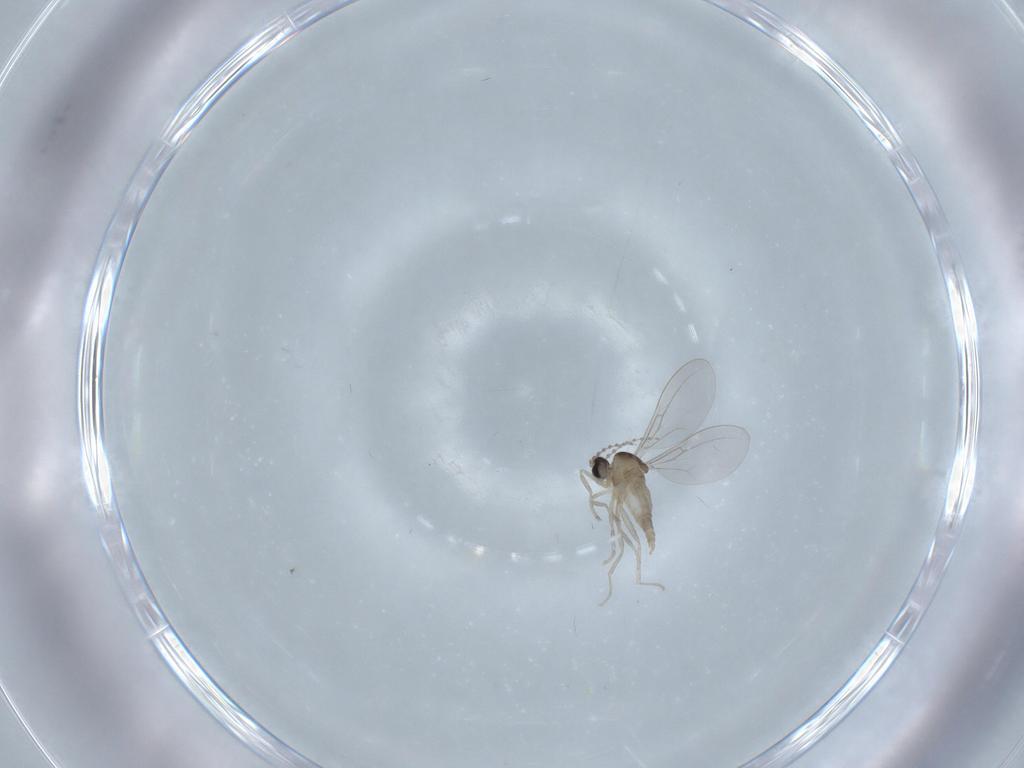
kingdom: Animalia
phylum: Arthropoda
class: Insecta
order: Diptera
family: Cecidomyiidae
